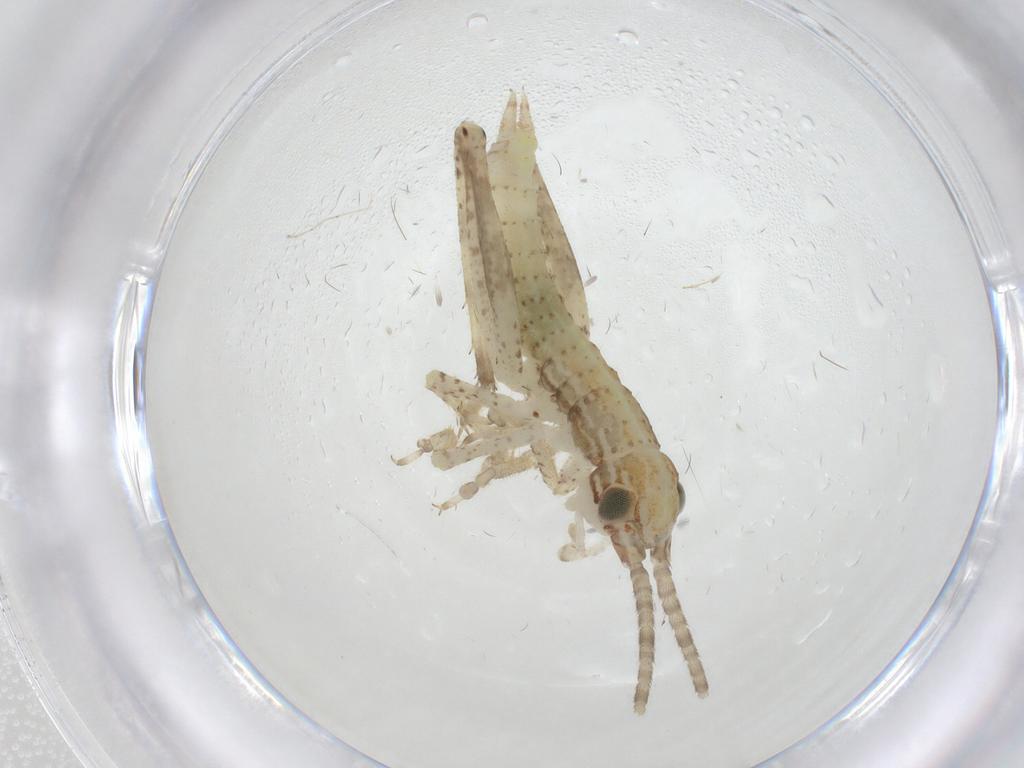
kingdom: Animalia
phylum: Arthropoda
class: Insecta
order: Orthoptera
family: Gryllidae
